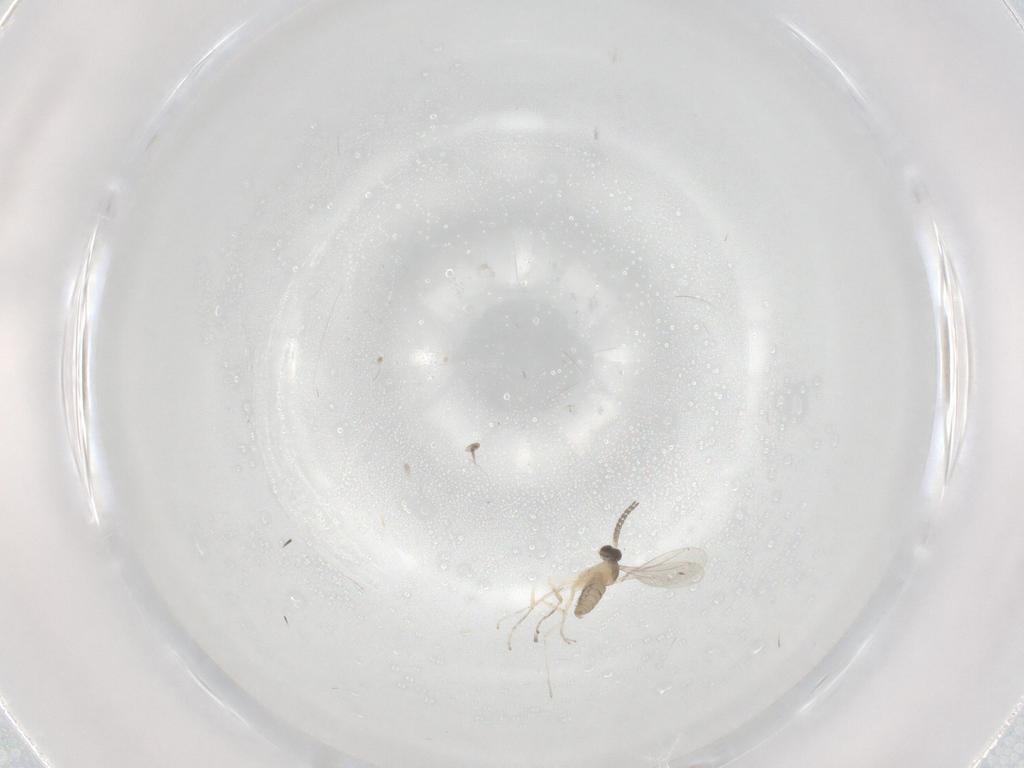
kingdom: Animalia
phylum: Arthropoda
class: Insecta
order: Diptera
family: Cecidomyiidae
